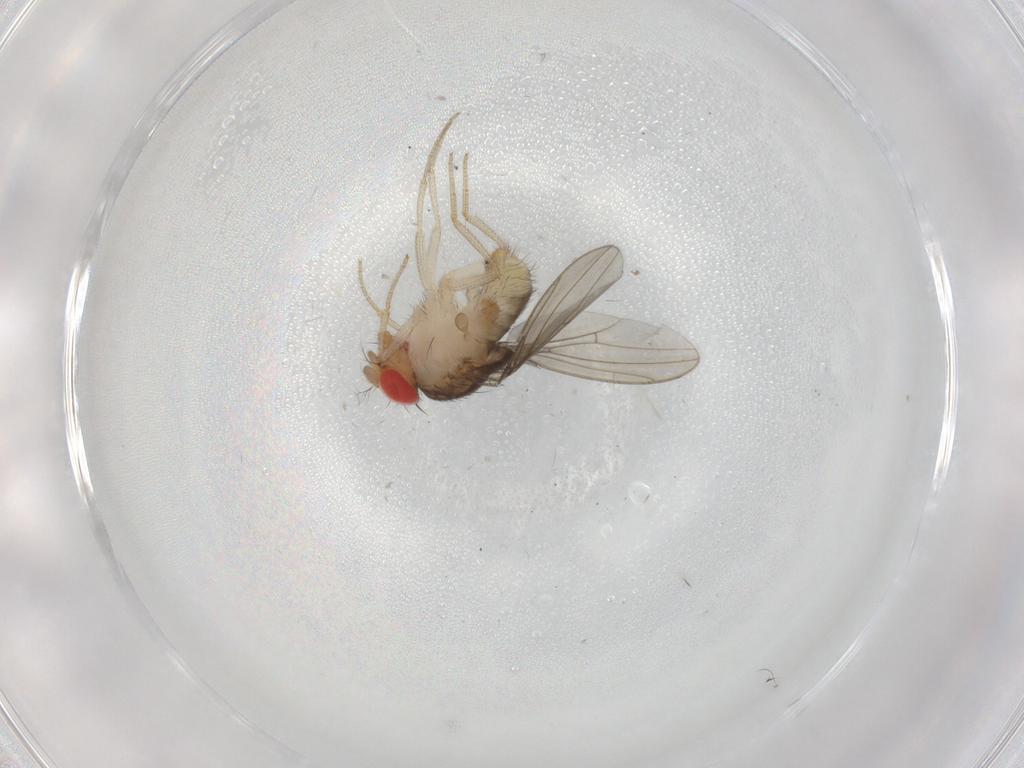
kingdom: Animalia
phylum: Arthropoda
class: Insecta
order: Diptera
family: Drosophilidae
